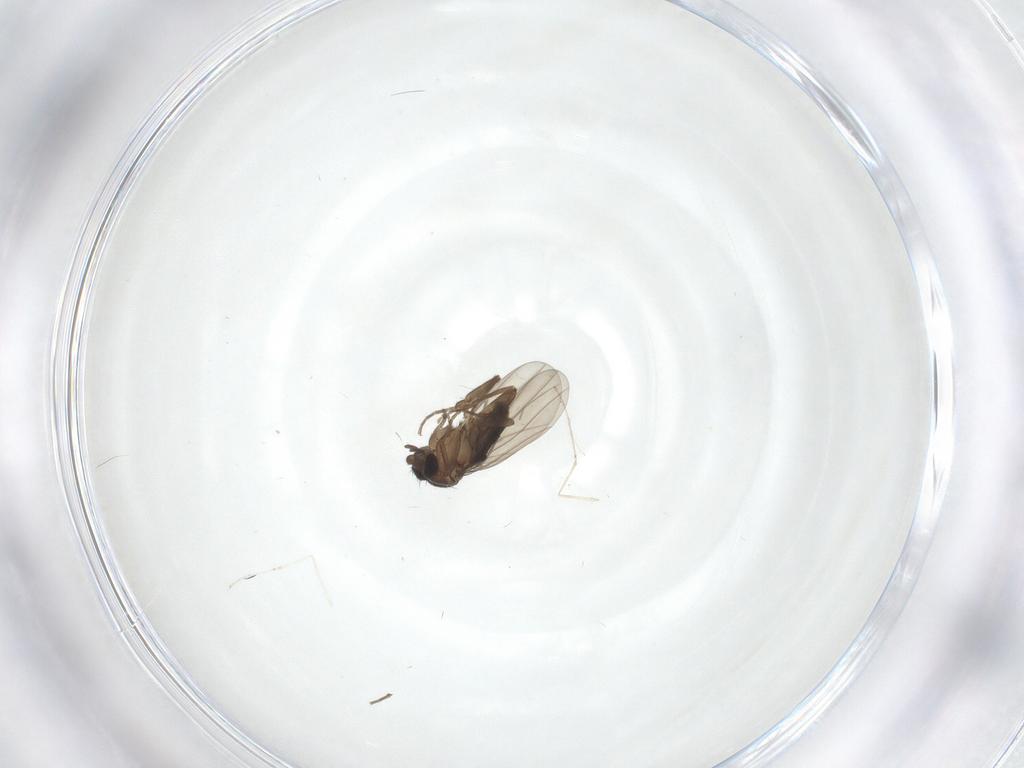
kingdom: Animalia
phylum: Arthropoda
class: Insecta
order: Diptera
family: Phoridae
